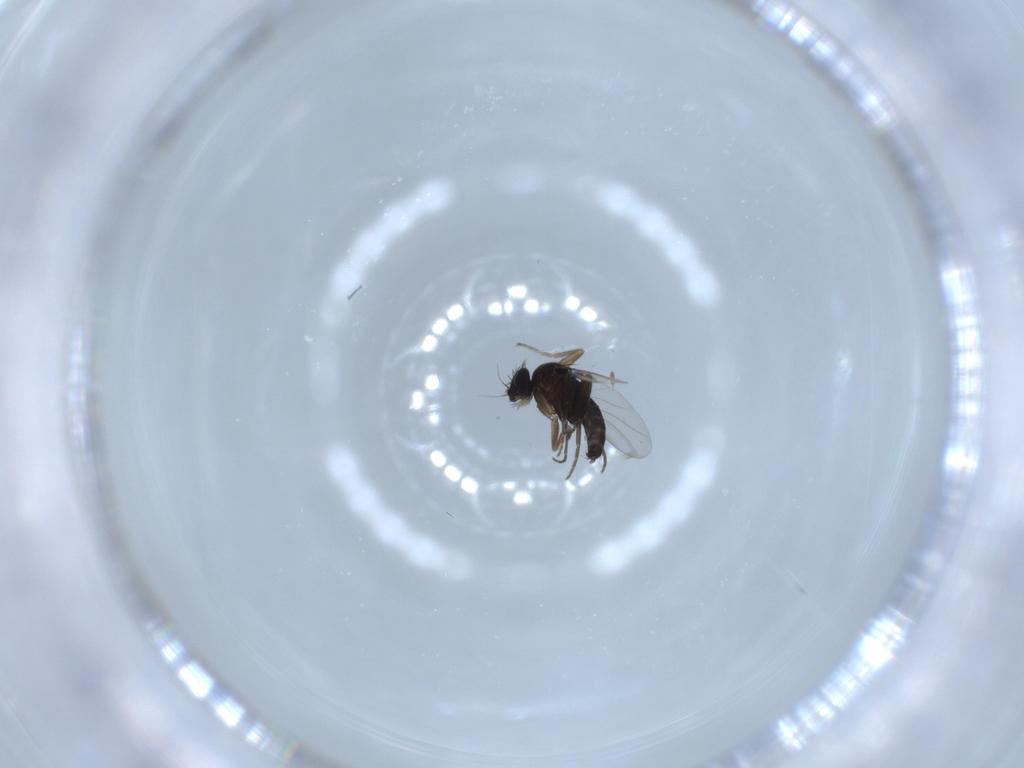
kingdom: Animalia
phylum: Arthropoda
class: Insecta
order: Diptera
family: Phoridae
